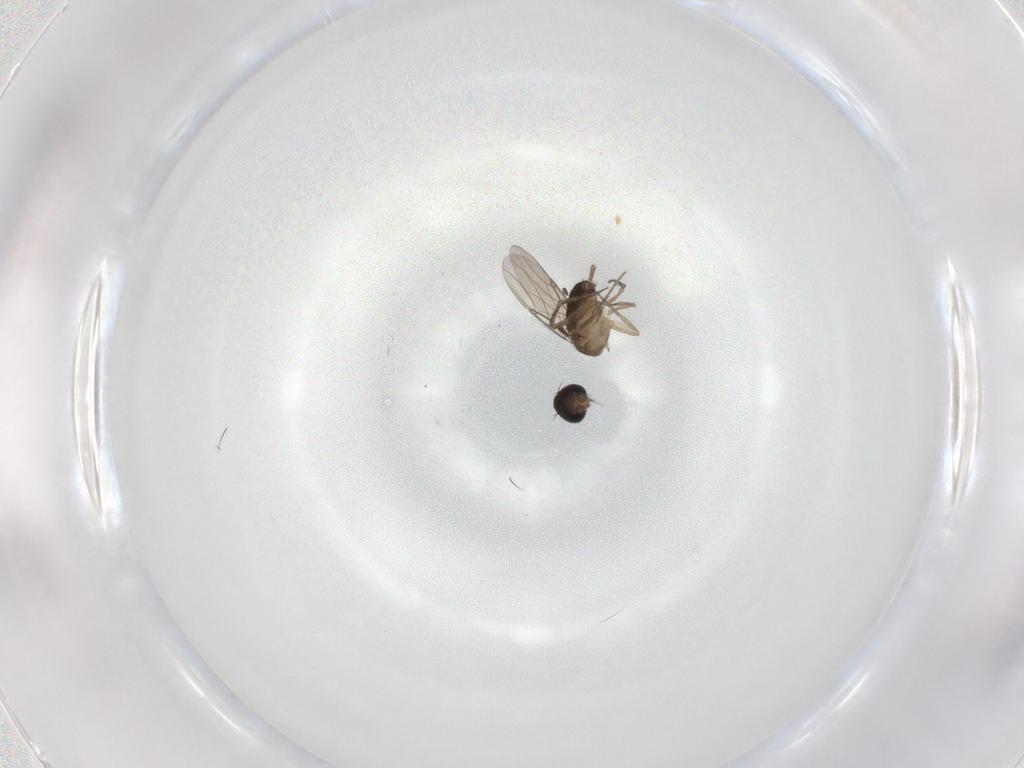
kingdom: Animalia
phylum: Arthropoda
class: Insecta
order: Diptera
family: Phoridae
